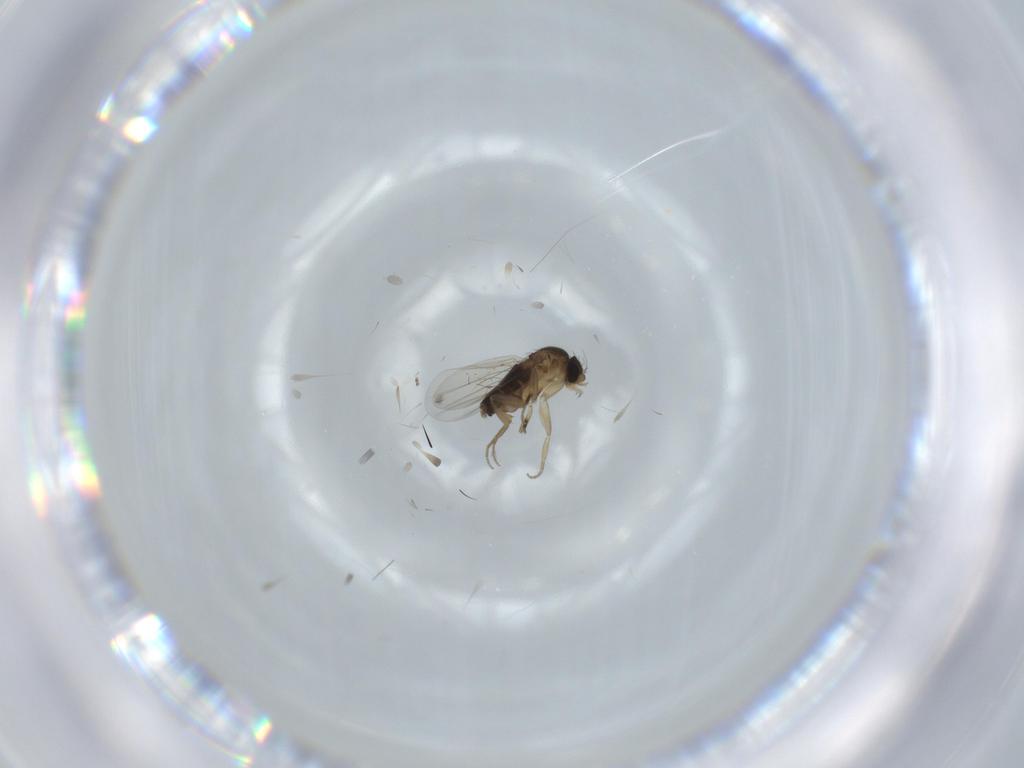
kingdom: Animalia
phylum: Arthropoda
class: Insecta
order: Diptera
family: Phoridae
